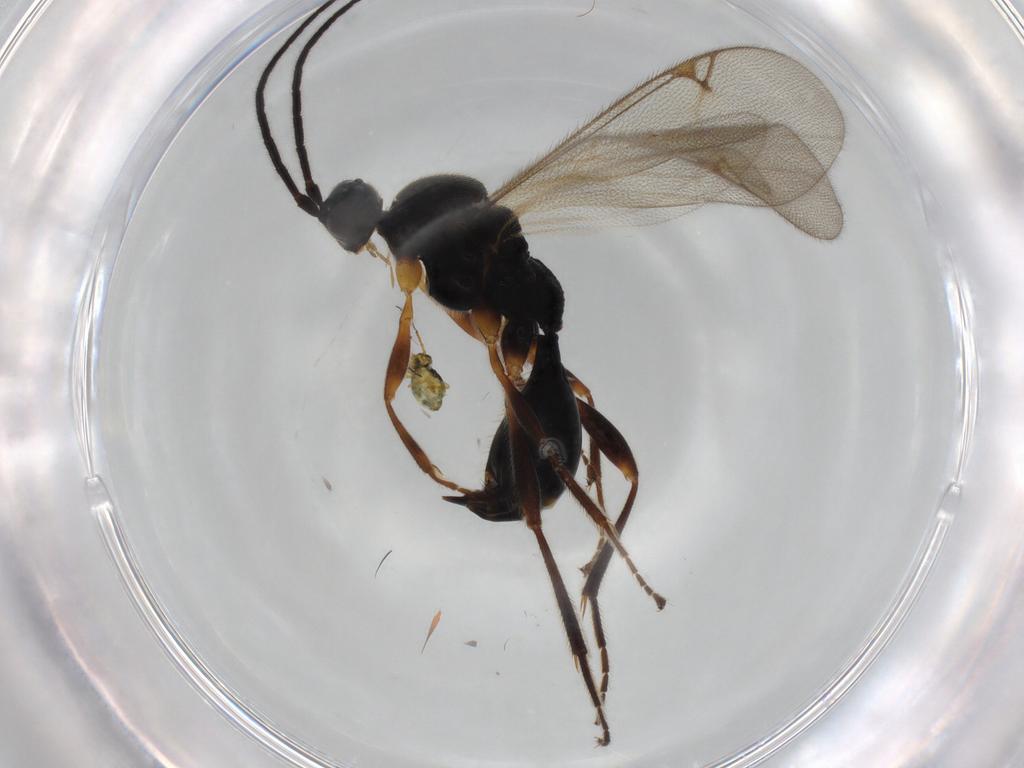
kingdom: Animalia
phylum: Arthropoda
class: Insecta
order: Hymenoptera
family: Proctotrupidae
